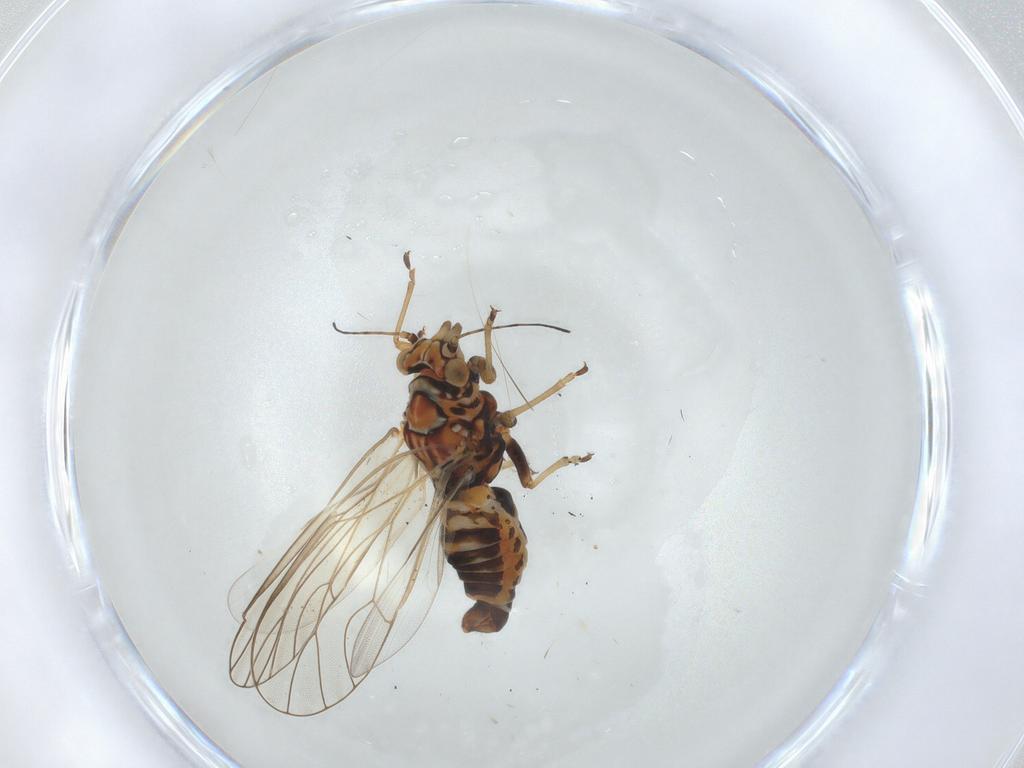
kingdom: Animalia
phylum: Arthropoda
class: Insecta
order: Hemiptera
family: Psyllidae
